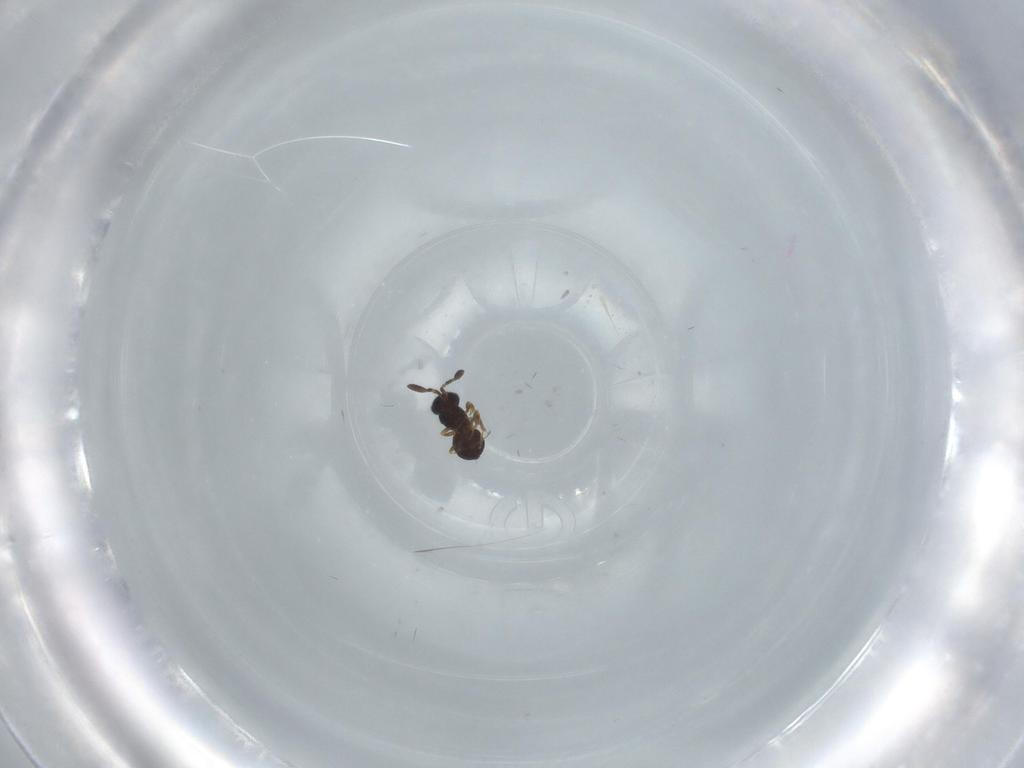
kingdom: Animalia
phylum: Arthropoda
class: Insecta
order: Hymenoptera
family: Scelionidae
